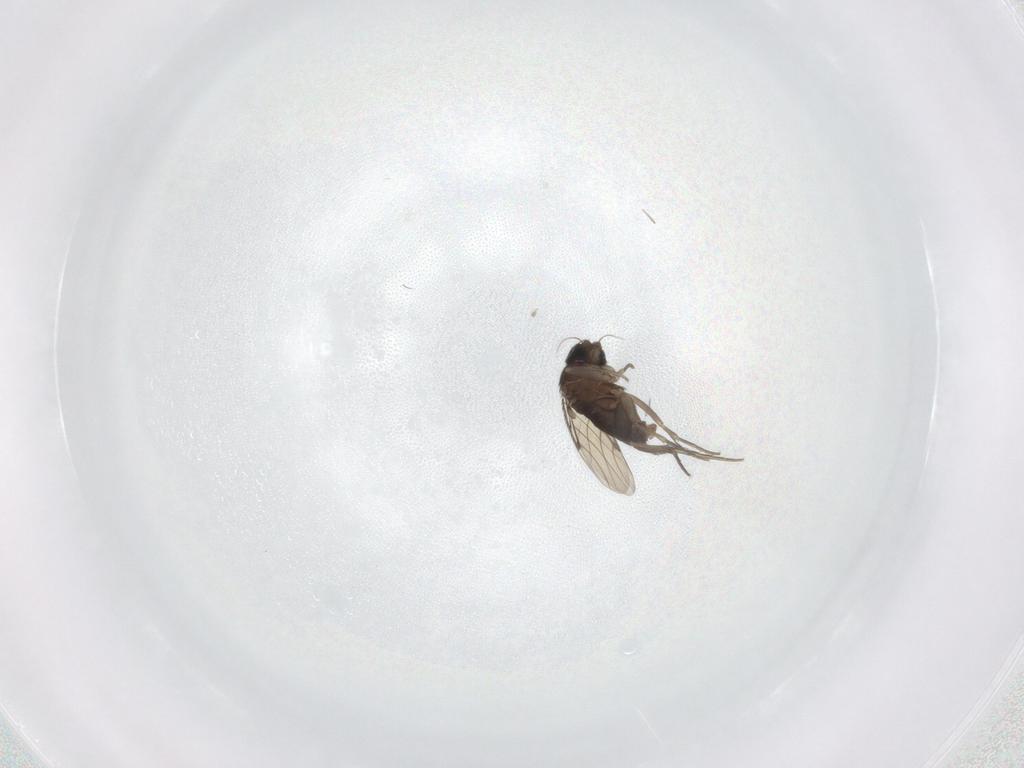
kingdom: Animalia
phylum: Arthropoda
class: Insecta
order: Diptera
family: Phoridae
